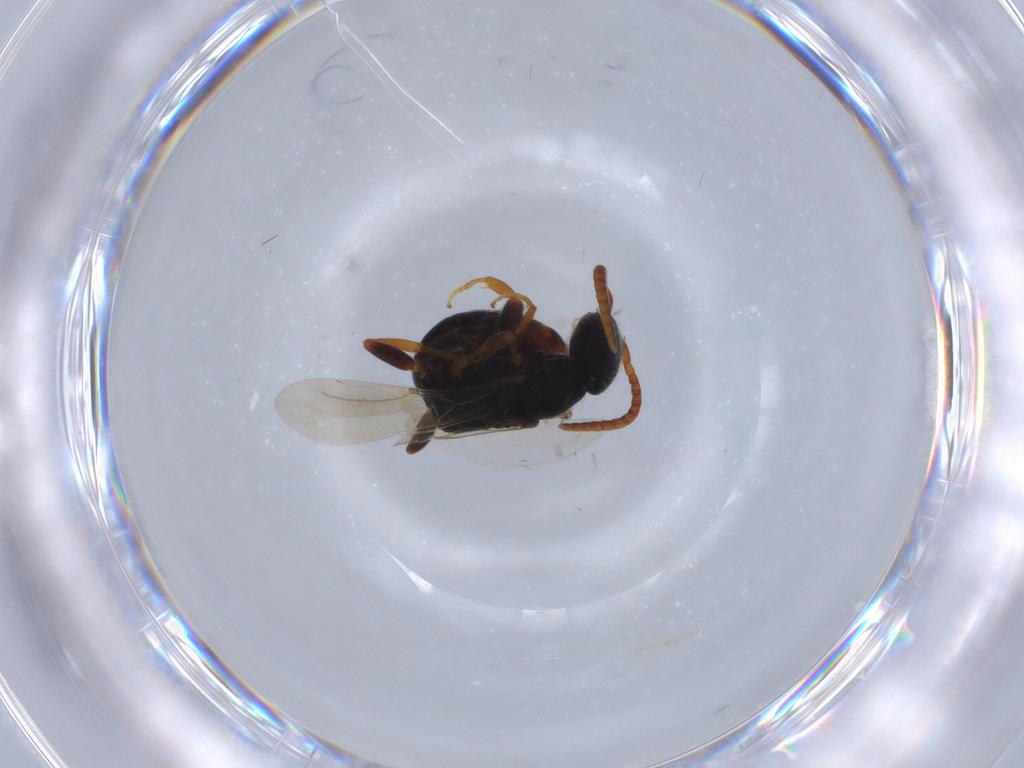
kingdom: Animalia
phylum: Arthropoda
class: Insecta
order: Hymenoptera
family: Bethylidae
